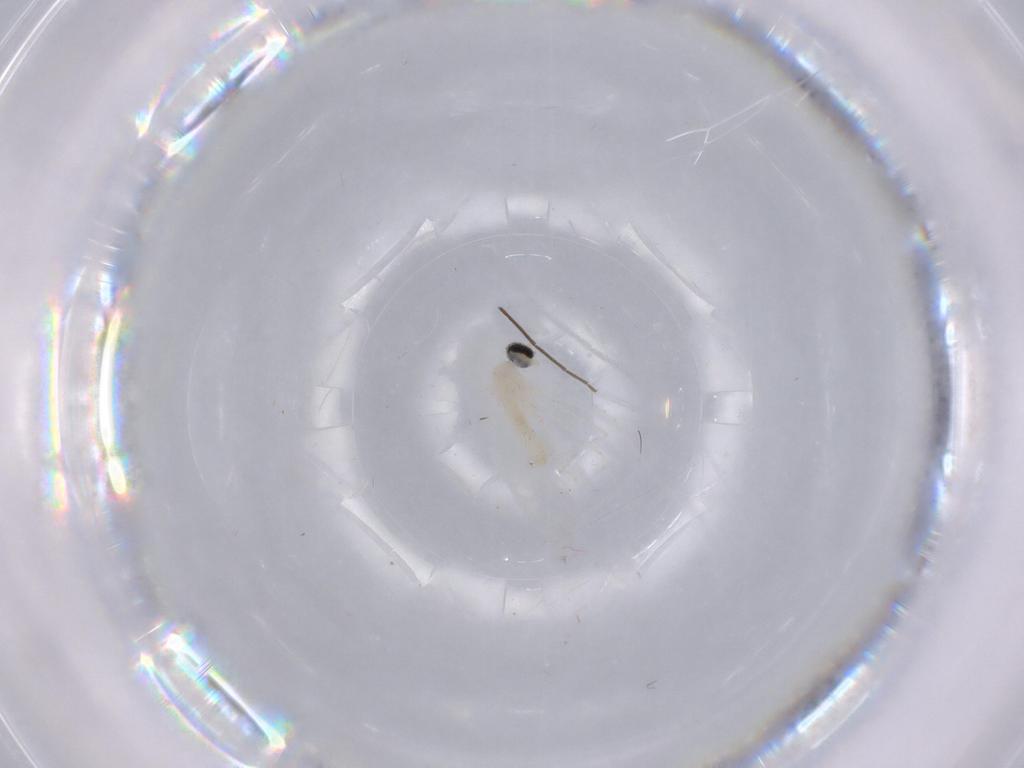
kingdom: Animalia
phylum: Arthropoda
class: Insecta
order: Diptera
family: Cecidomyiidae
